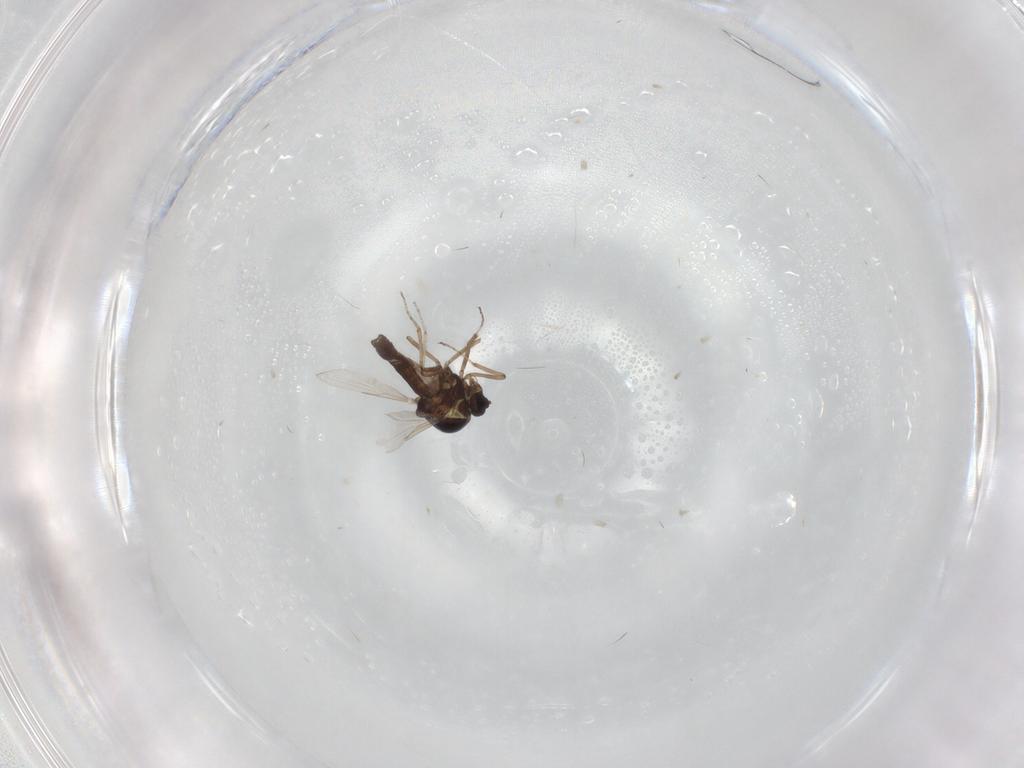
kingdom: Animalia
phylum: Arthropoda
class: Insecta
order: Diptera
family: Ceratopogonidae
